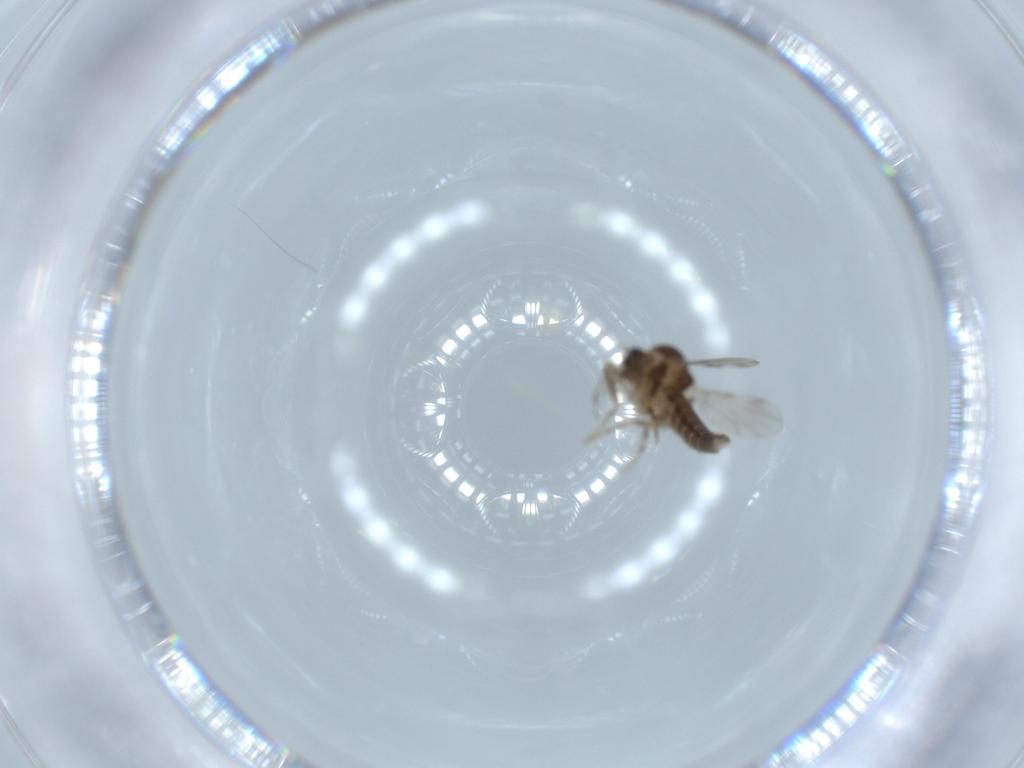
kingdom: Animalia
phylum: Arthropoda
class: Insecta
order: Diptera
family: Ceratopogonidae
